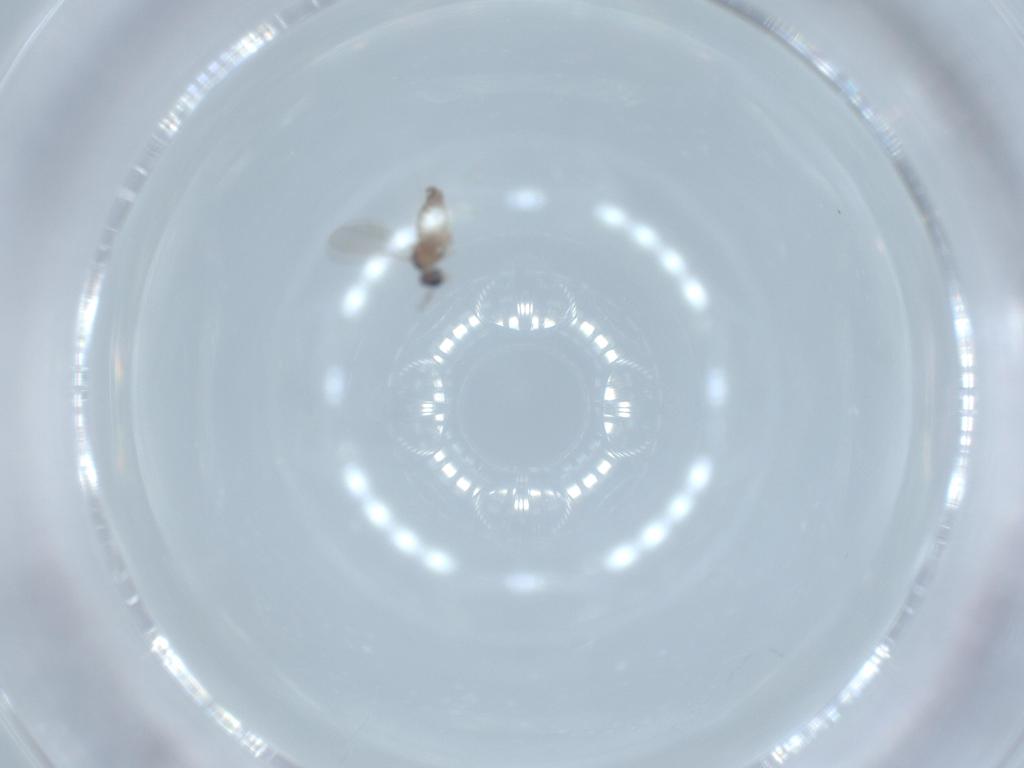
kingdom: Animalia
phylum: Arthropoda
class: Insecta
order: Diptera
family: Cecidomyiidae
